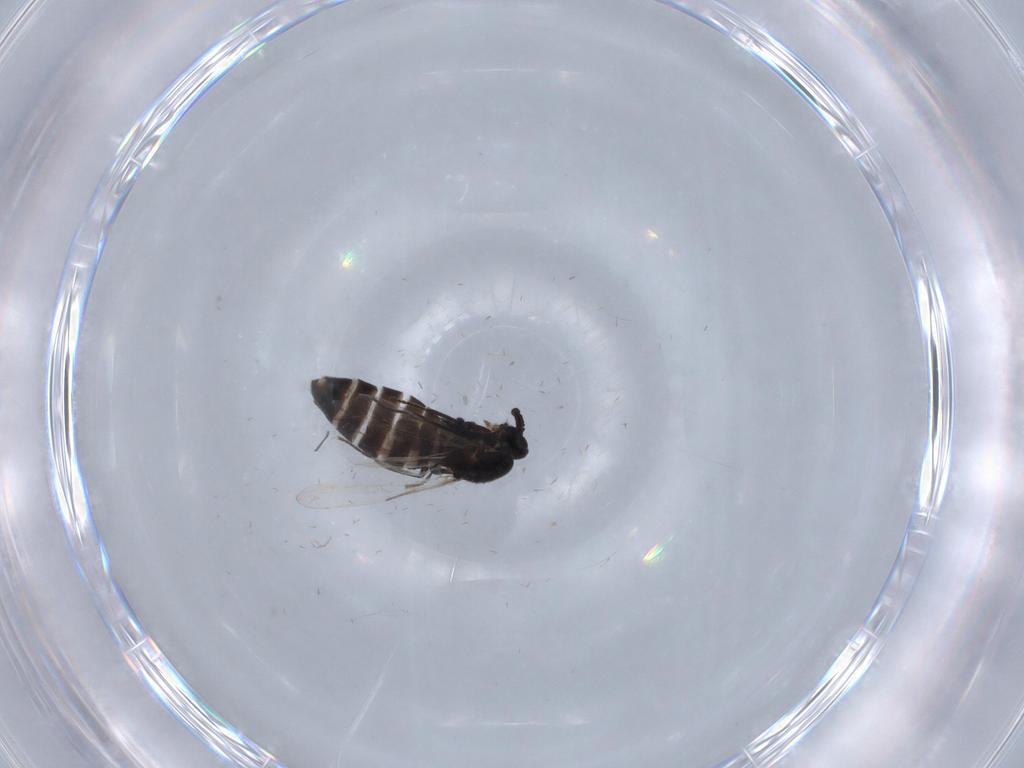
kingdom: Animalia
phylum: Arthropoda
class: Insecta
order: Diptera
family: Scatopsidae
